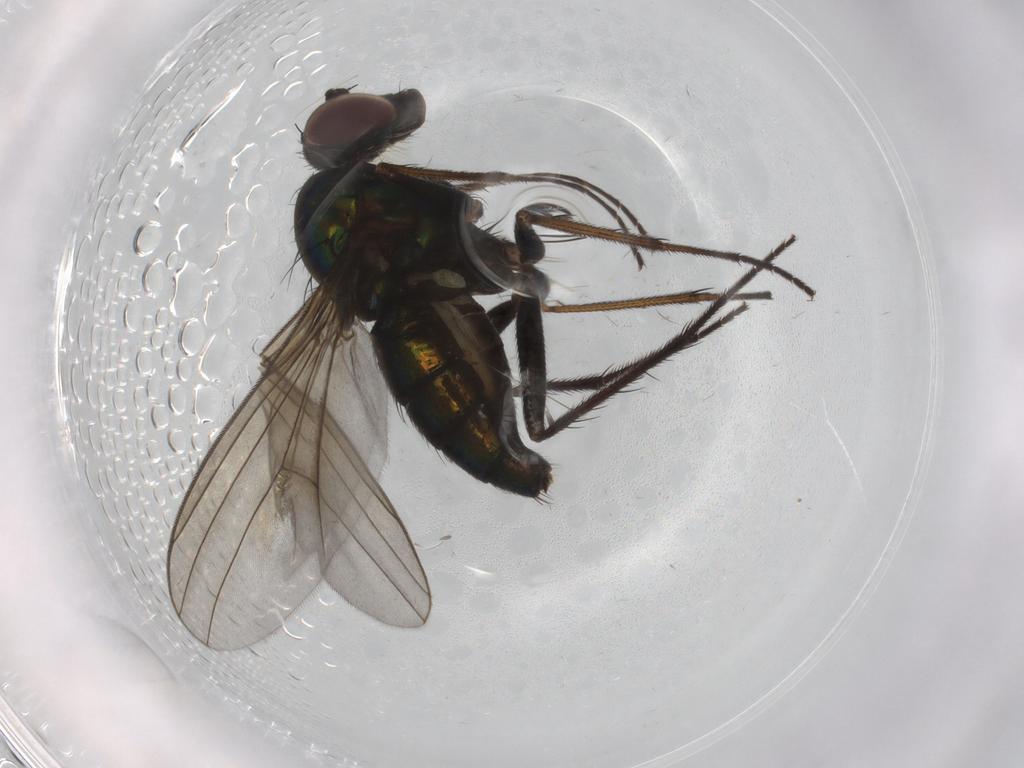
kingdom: Animalia
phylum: Arthropoda
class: Insecta
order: Diptera
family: Dolichopodidae
